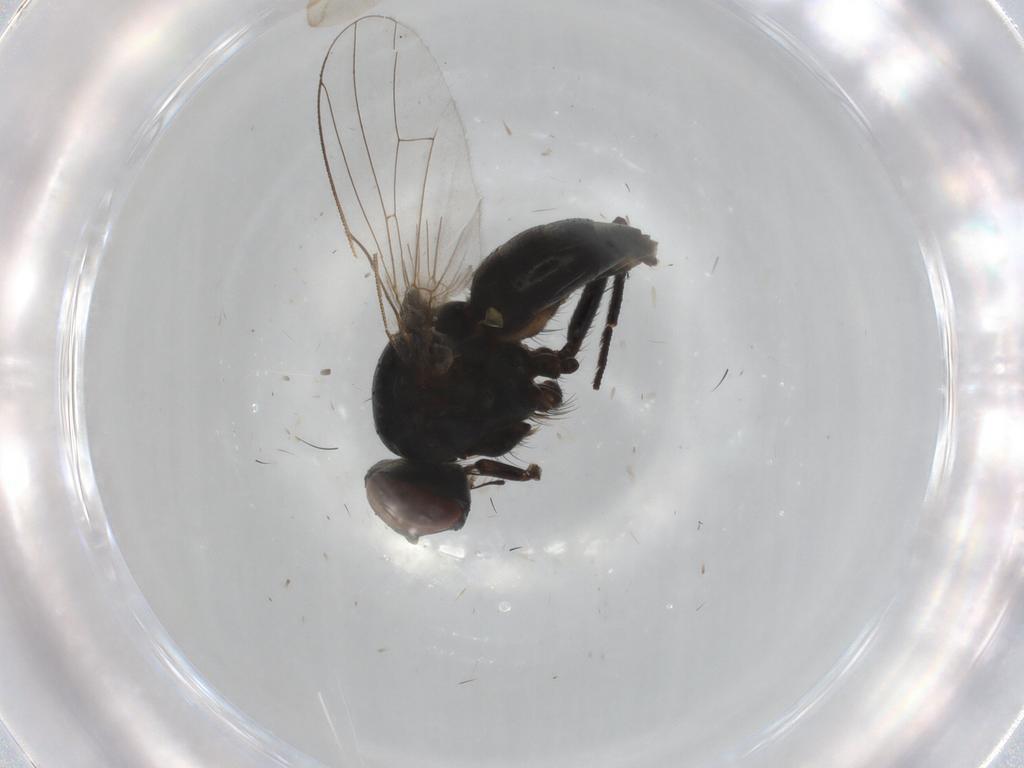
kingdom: Animalia
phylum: Arthropoda
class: Insecta
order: Diptera
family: Muscidae
